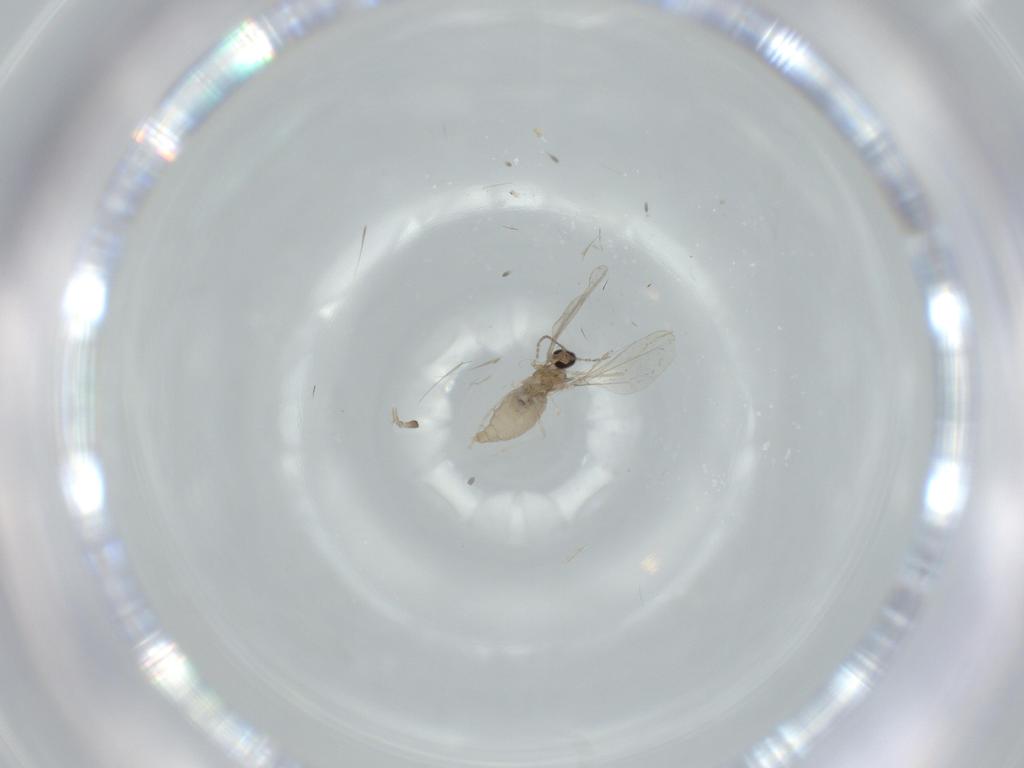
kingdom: Animalia
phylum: Arthropoda
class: Insecta
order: Diptera
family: Cecidomyiidae
